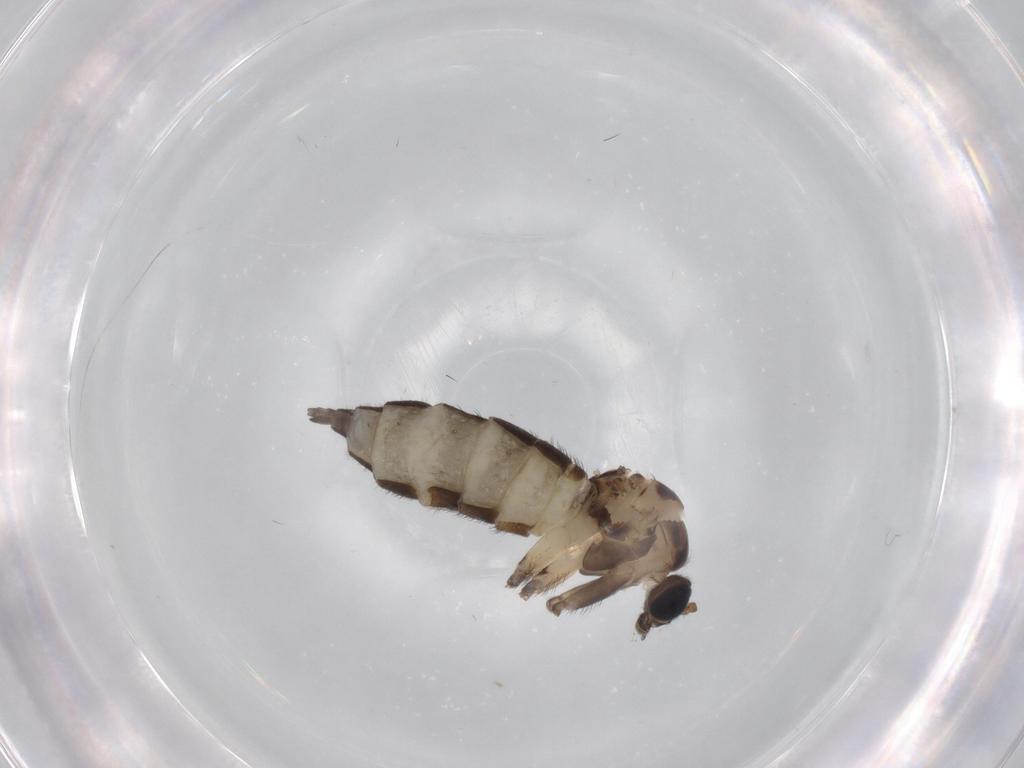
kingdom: Animalia
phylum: Arthropoda
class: Insecta
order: Diptera
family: Sciaridae
